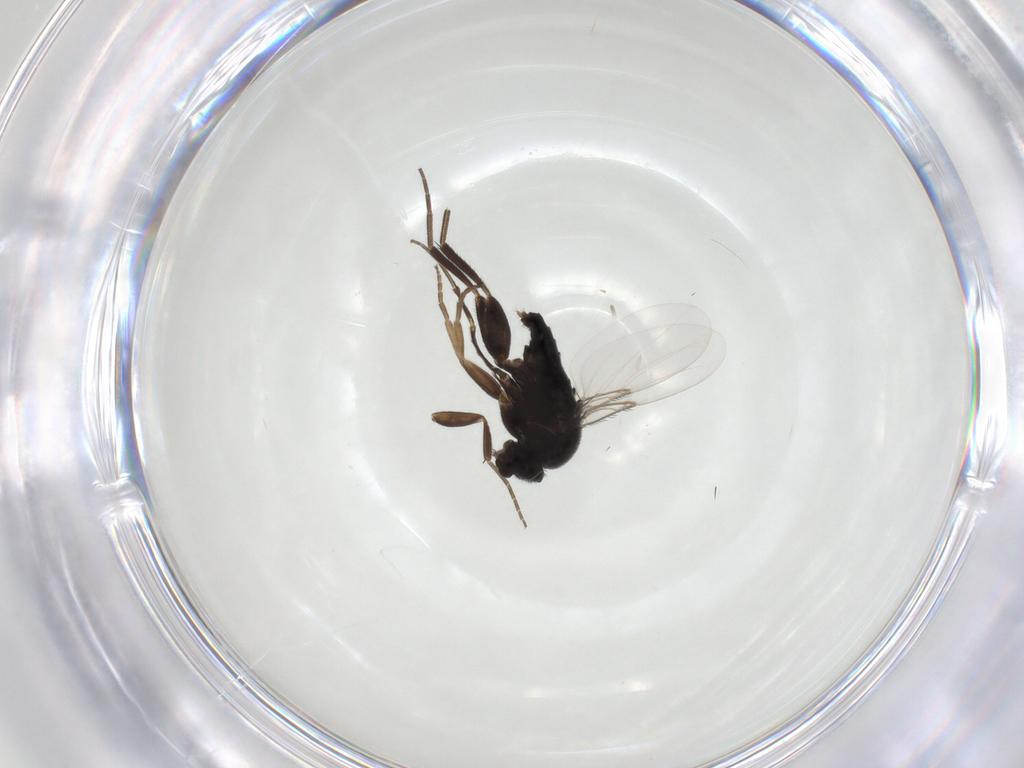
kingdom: Animalia
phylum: Arthropoda
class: Insecta
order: Diptera
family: Phoridae
